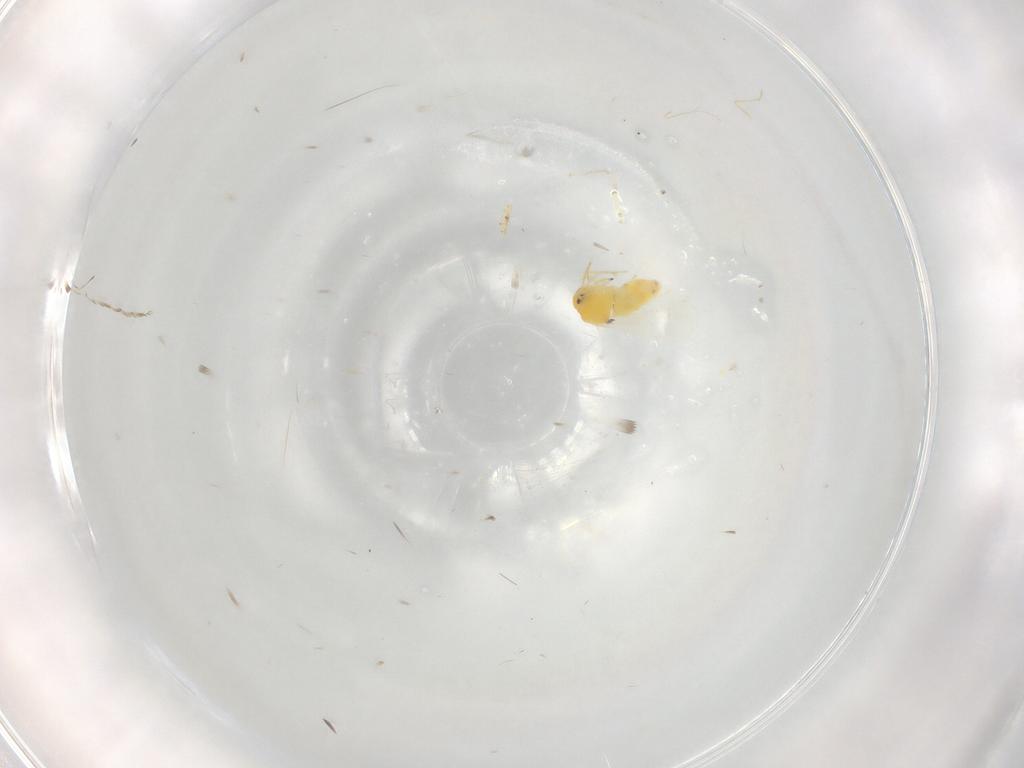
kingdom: Animalia
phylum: Arthropoda
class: Insecta
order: Hemiptera
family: Aleyrodidae
